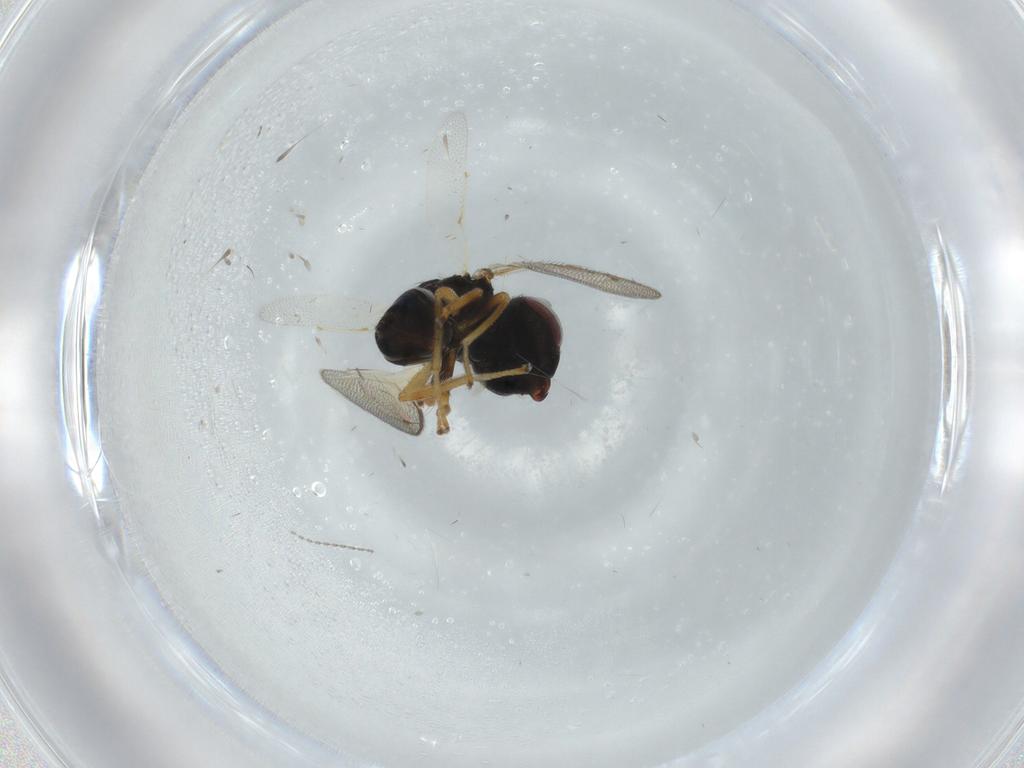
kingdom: Animalia
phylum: Arthropoda
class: Insecta
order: Hymenoptera
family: Pteromalidae
